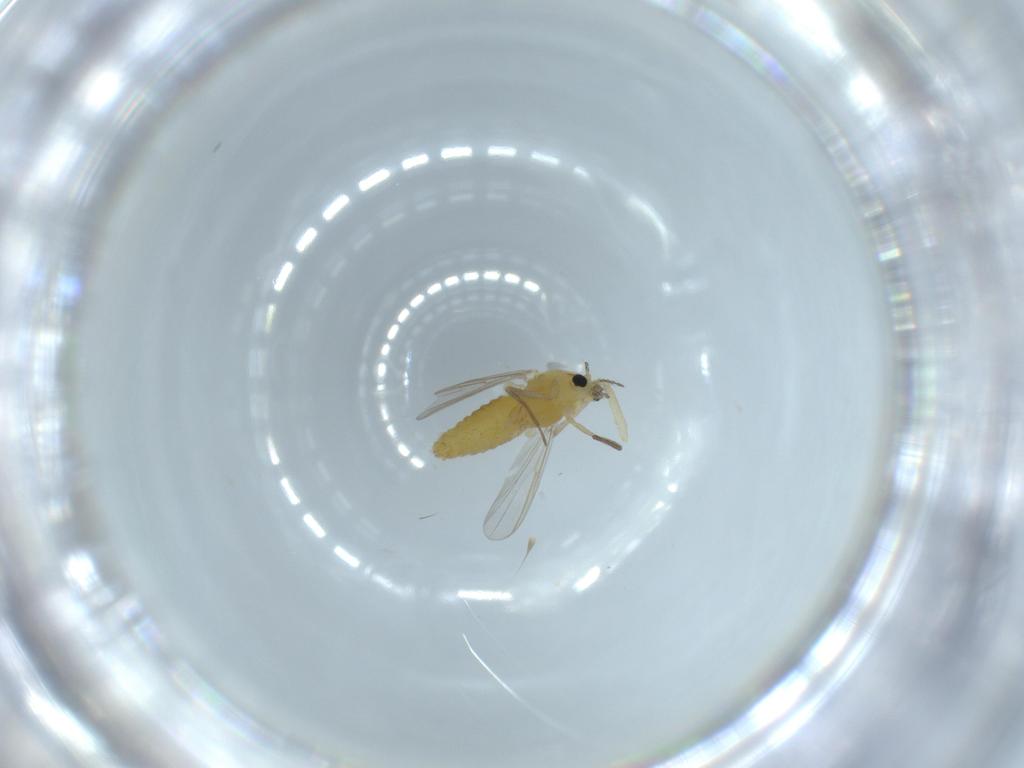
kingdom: Animalia
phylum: Arthropoda
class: Insecta
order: Diptera
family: Chironomidae
